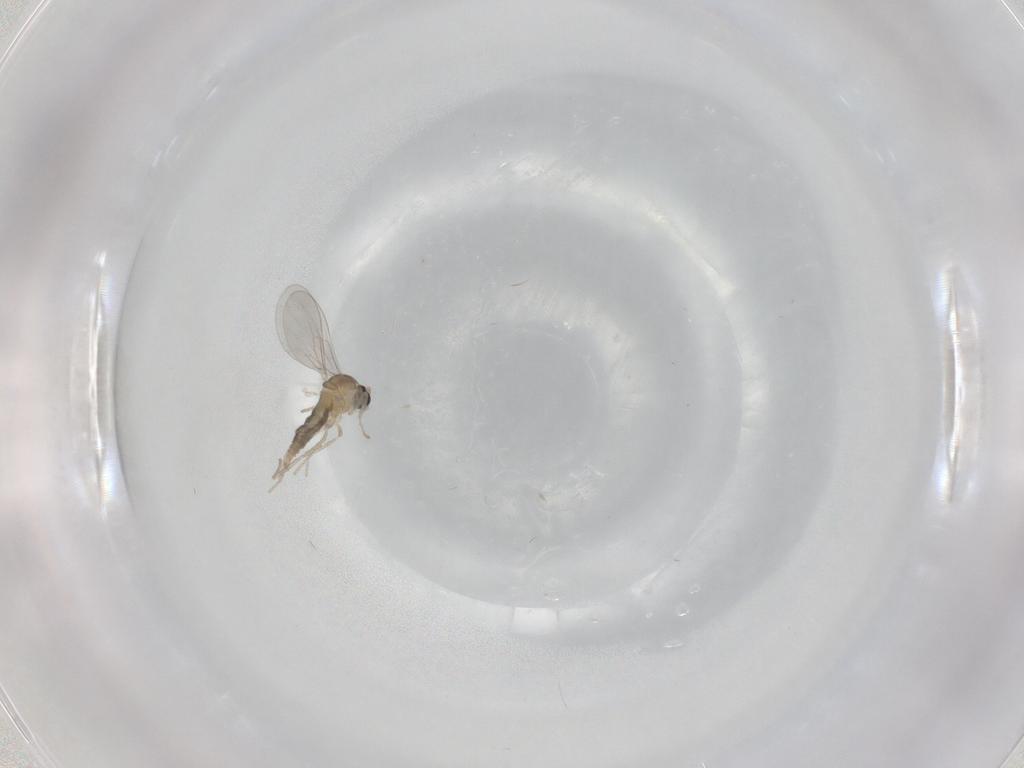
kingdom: Animalia
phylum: Arthropoda
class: Insecta
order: Diptera
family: Cecidomyiidae
